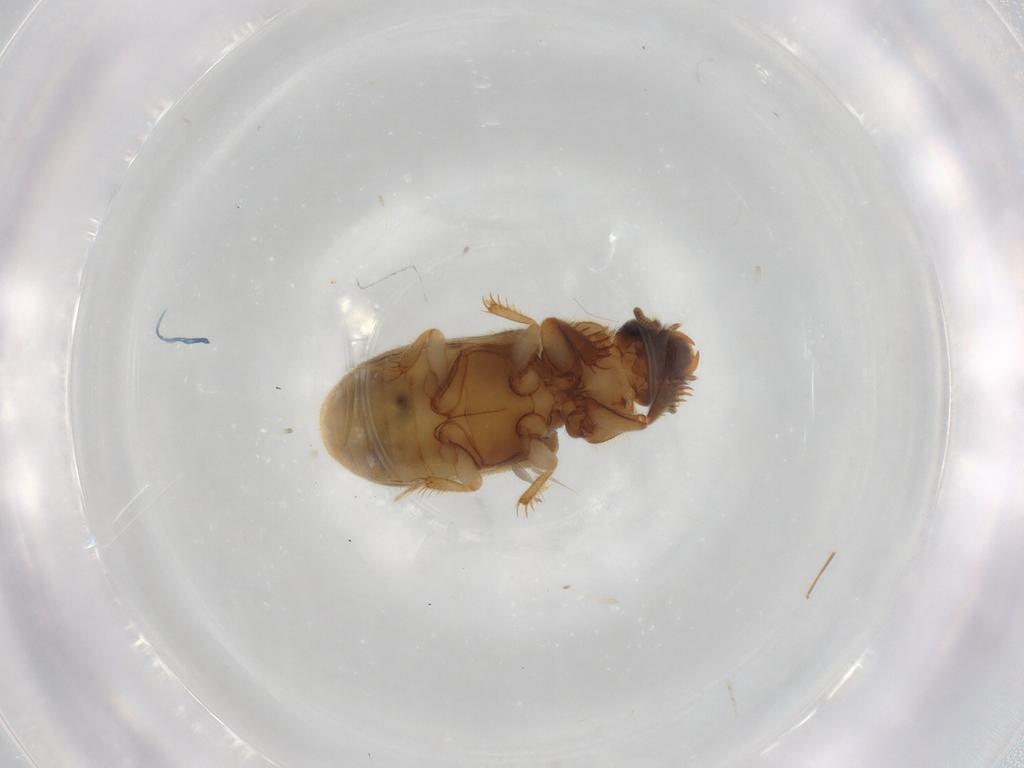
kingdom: Animalia
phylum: Arthropoda
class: Insecta
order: Coleoptera
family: Heteroceridae
